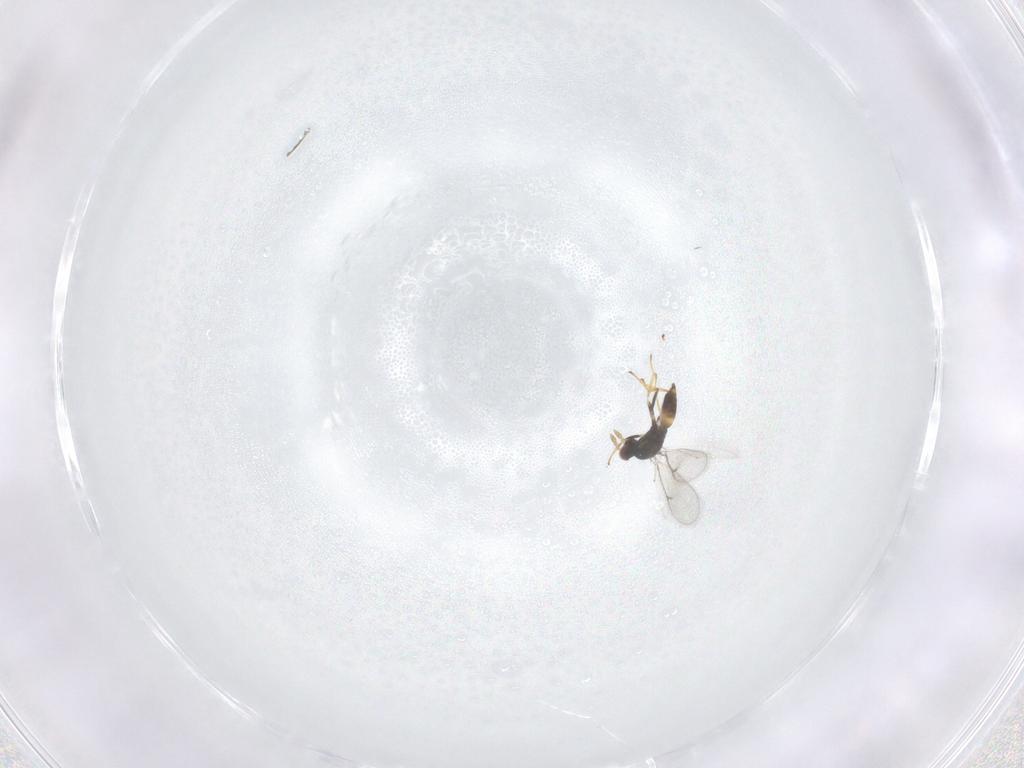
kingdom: Animalia
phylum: Arthropoda
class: Insecta
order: Hymenoptera
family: Eulophidae
